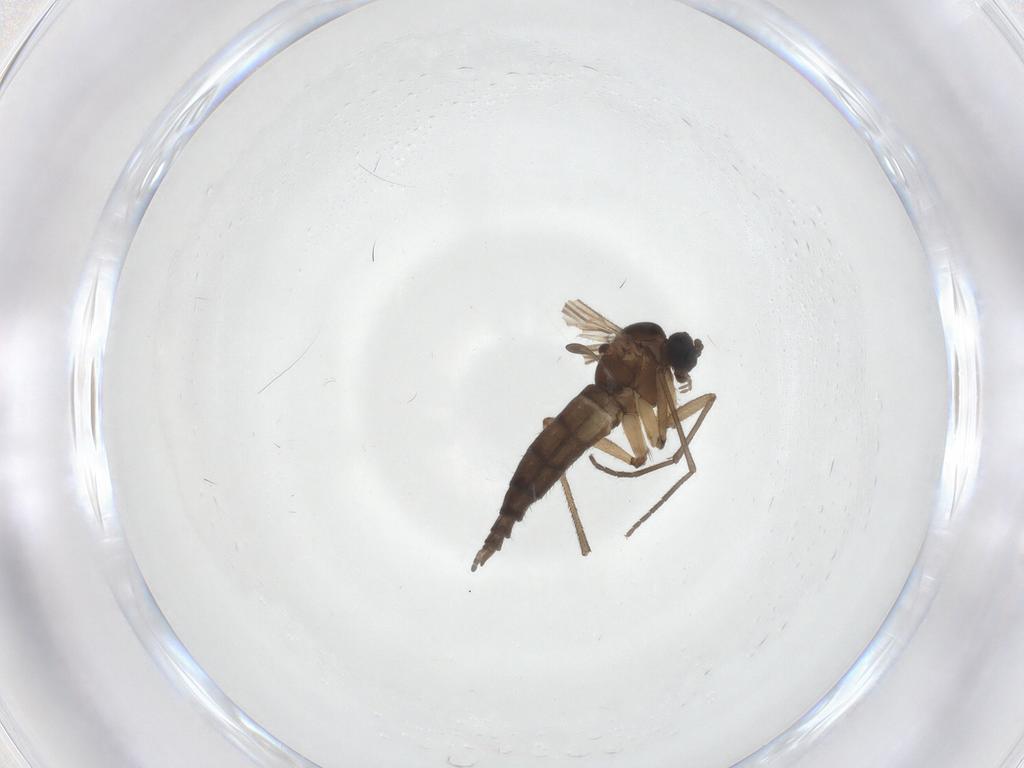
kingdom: Animalia
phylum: Arthropoda
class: Insecta
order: Diptera
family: Sciaridae
